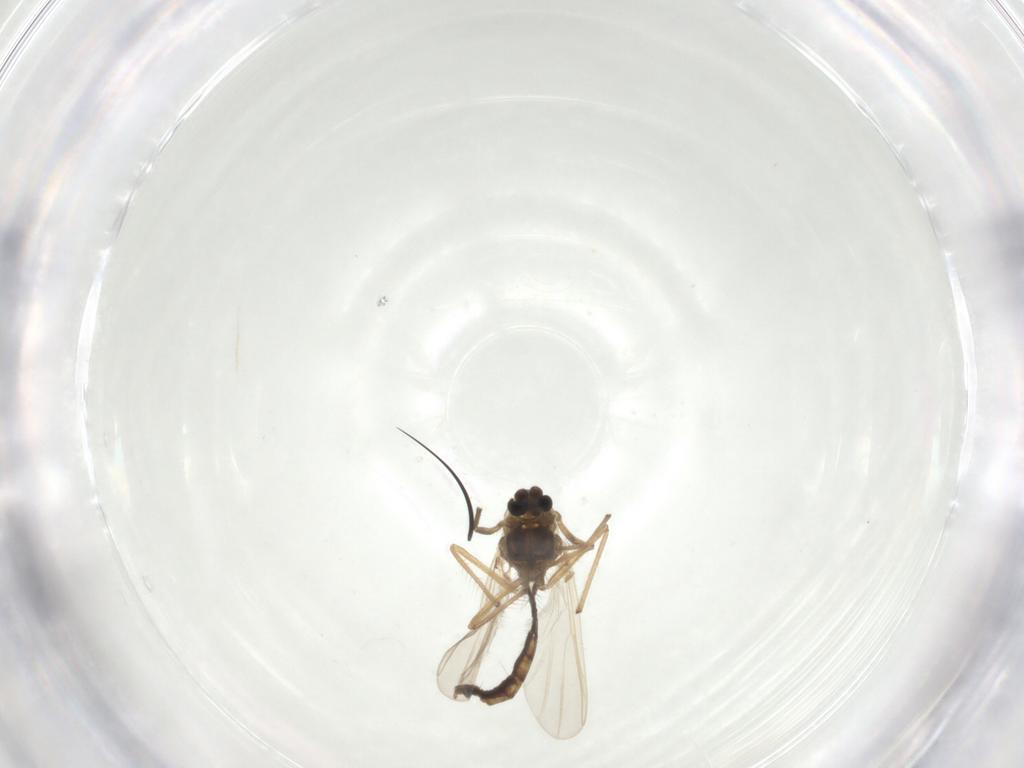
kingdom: Animalia
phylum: Arthropoda
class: Insecta
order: Diptera
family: Chironomidae
